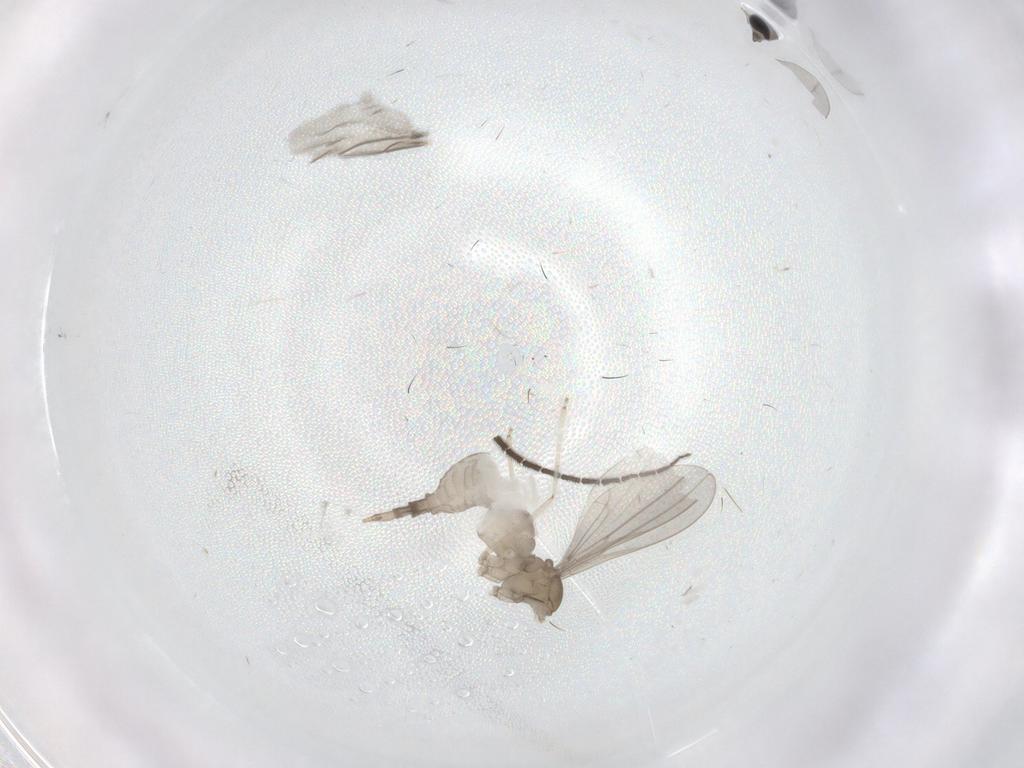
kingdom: Animalia
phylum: Arthropoda
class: Insecta
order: Diptera
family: Cecidomyiidae
